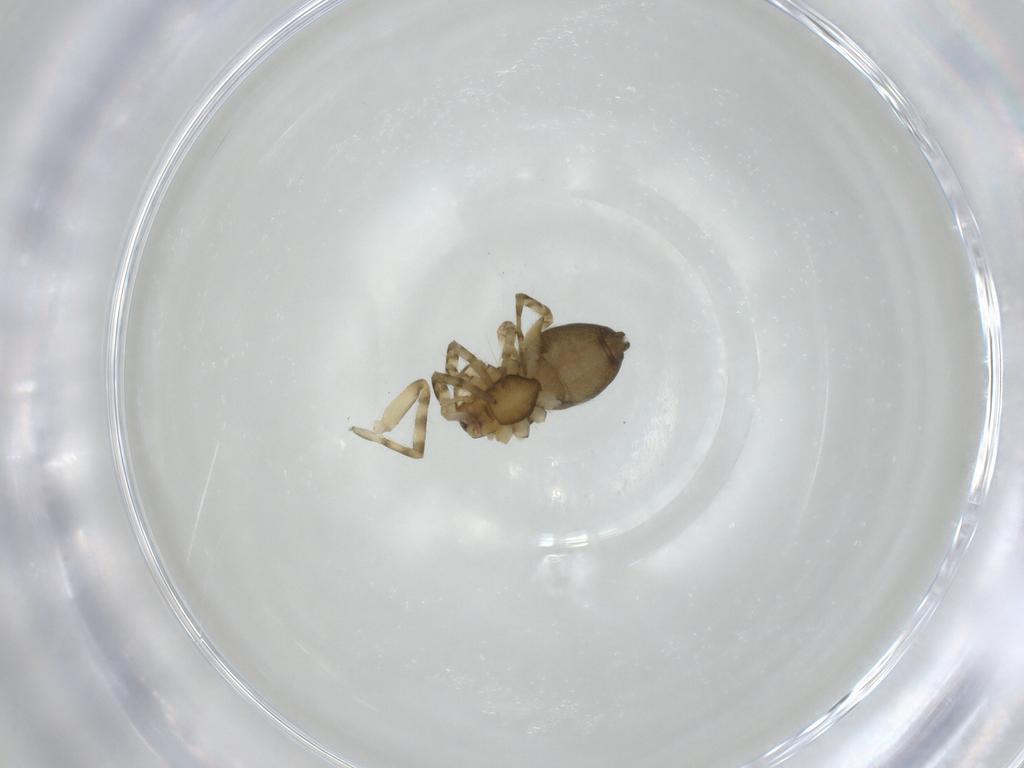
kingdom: Animalia
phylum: Arthropoda
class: Arachnida
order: Araneae
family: Trachelidae
